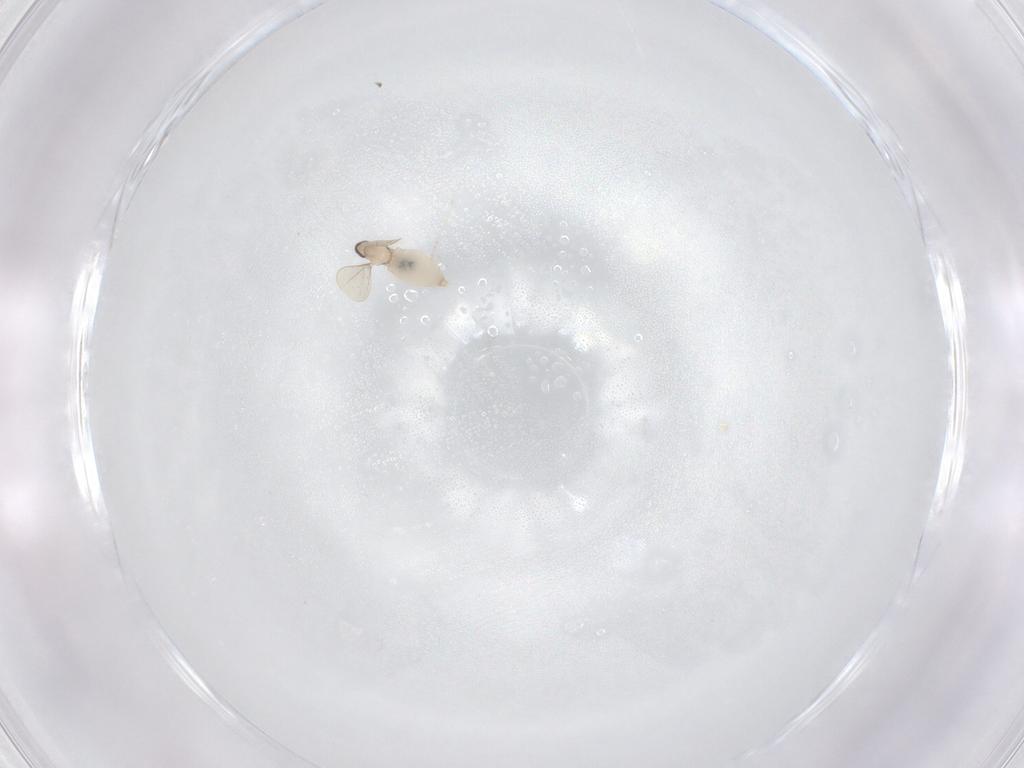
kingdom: Animalia
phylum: Arthropoda
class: Insecta
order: Diptera
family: Cecidomyiidae
